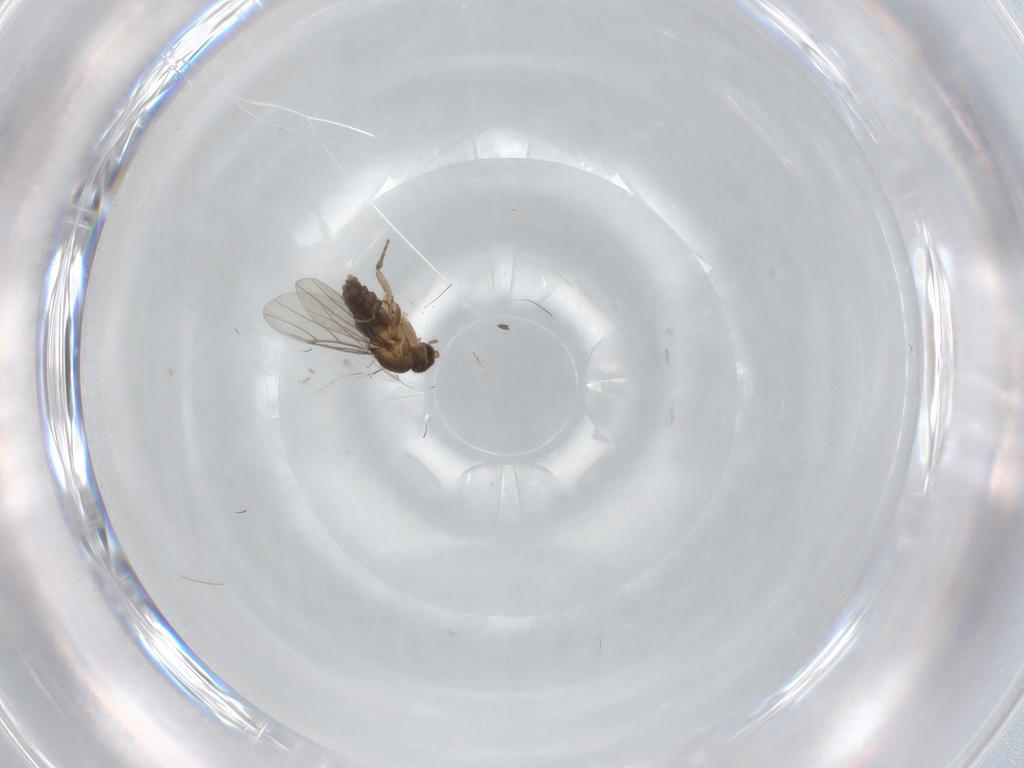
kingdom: Animalia
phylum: Arthropoda
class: Insecta
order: Diptera
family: Phoridae
